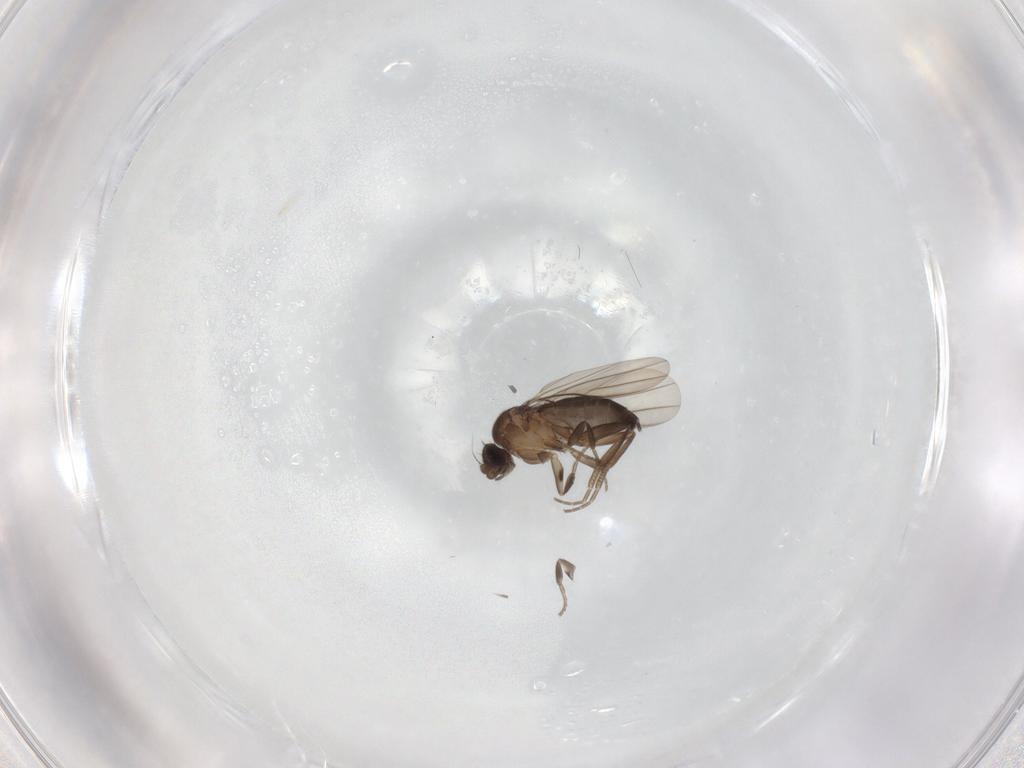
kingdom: Animalia
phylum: Arthropoda
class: Insecta
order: Diptera
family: Phoridae
